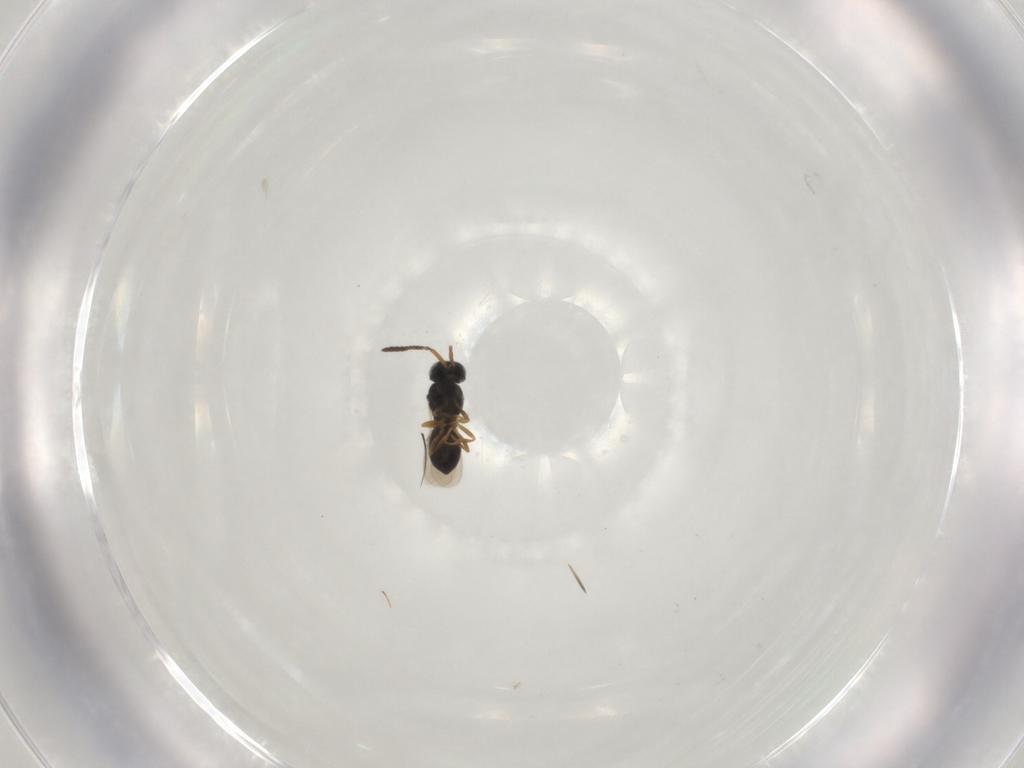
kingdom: Animalia
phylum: Arthropoda
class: Insecta
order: Hymenoptera
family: Scelionidae
